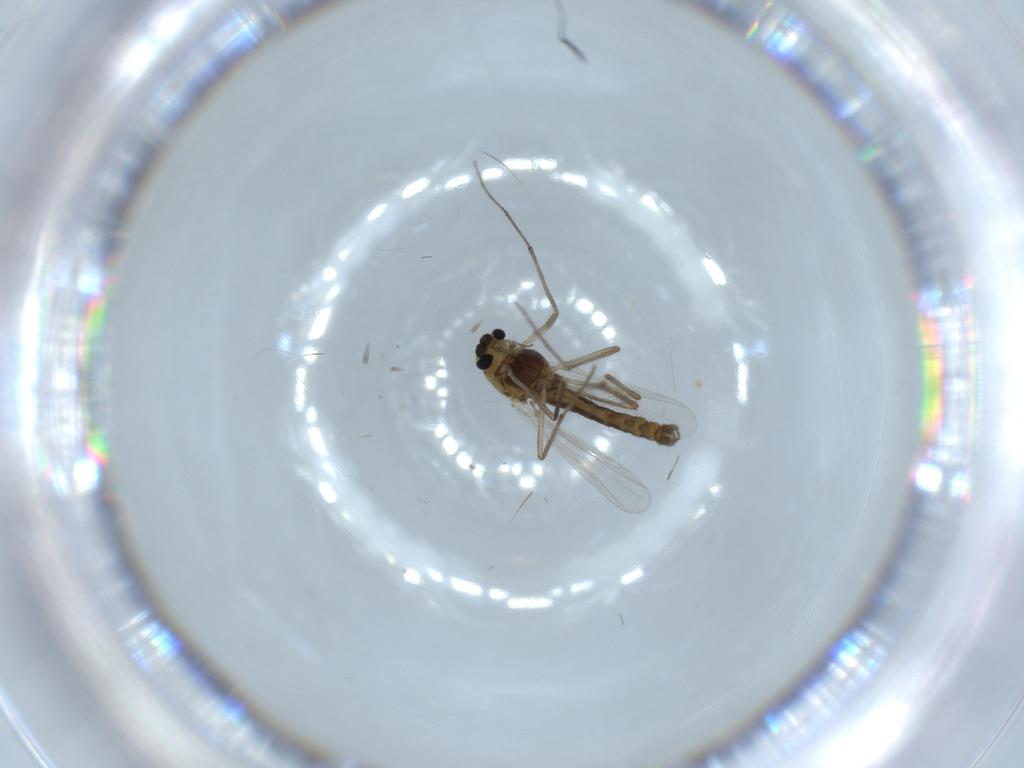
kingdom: Animalia
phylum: Arthropoda
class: Insecta
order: Diptera
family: Chironomidae
